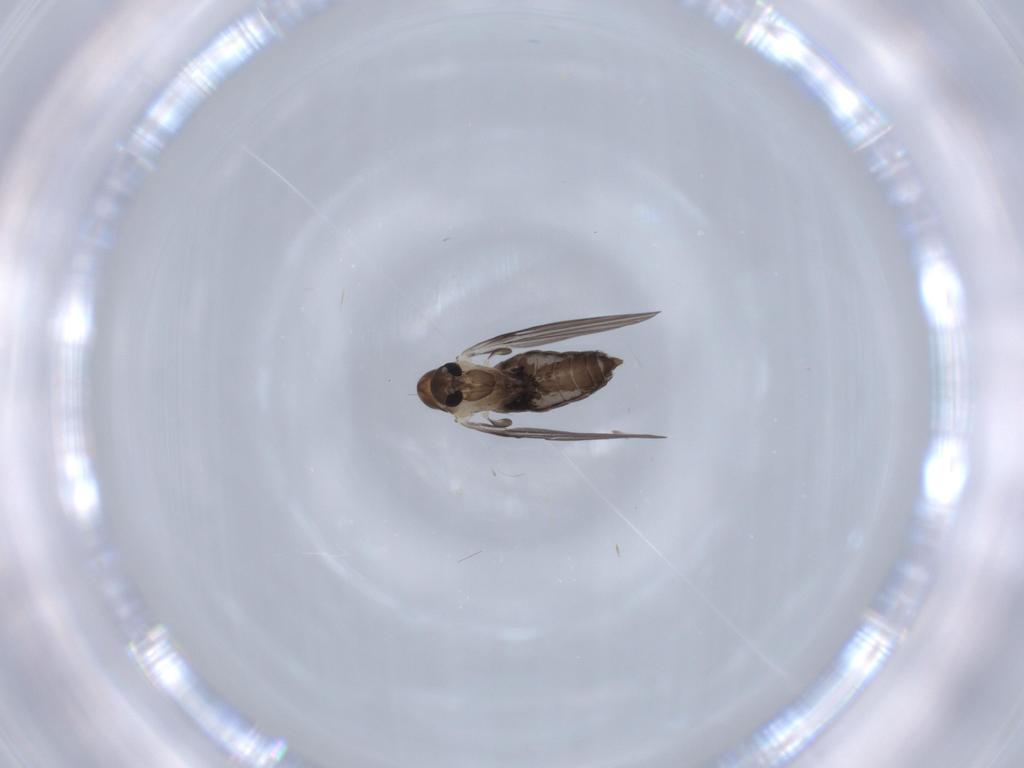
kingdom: Animalia
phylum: Arthropoda
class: Insecta
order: Diptera
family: Psychodidae
